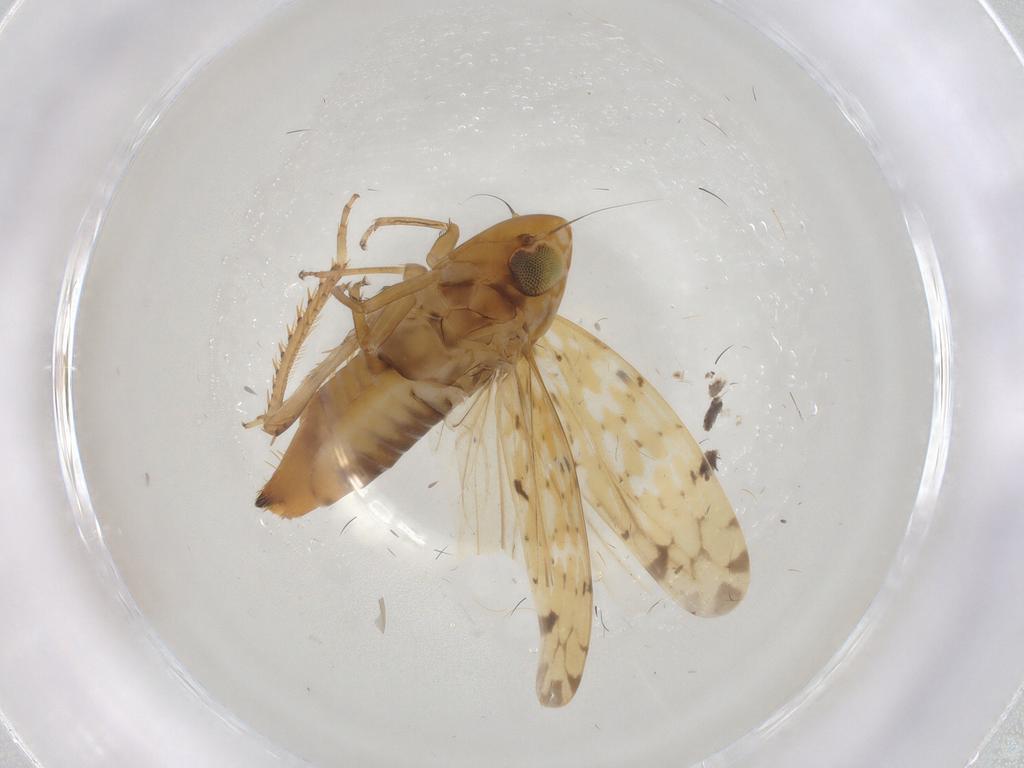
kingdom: Animalia
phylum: Arthropoda
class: Insecta
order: Hemiptera
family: Cicadellidae
